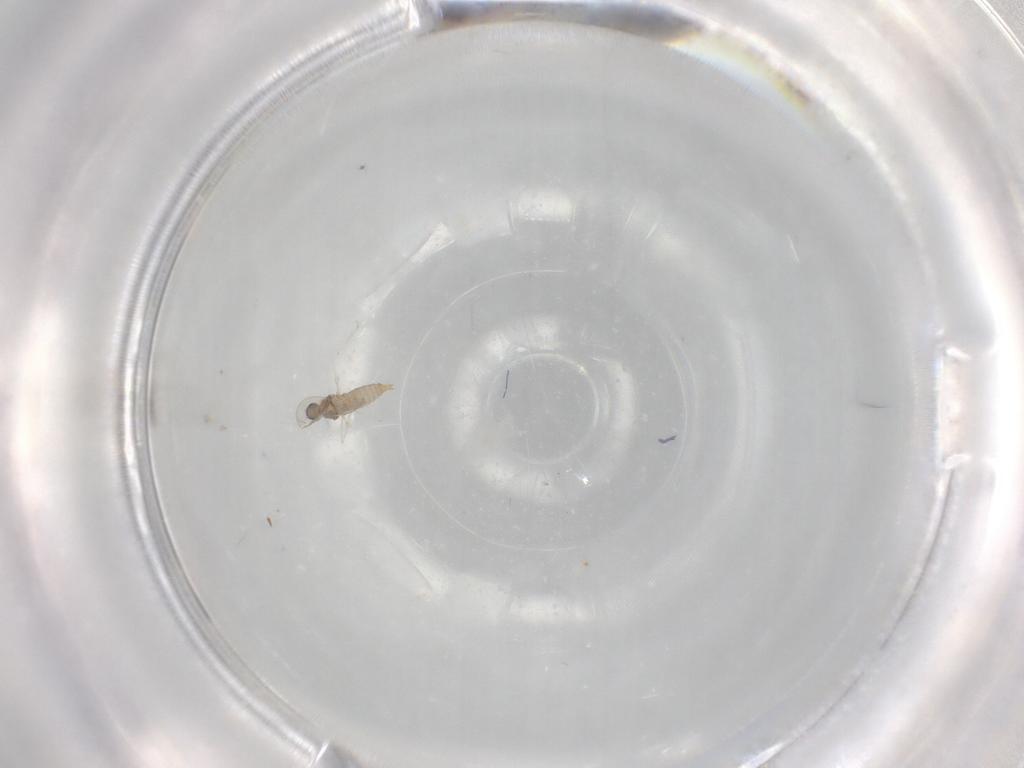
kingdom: Animalia
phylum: Arthropoda
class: Insecta
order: Diptera
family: Cecidomyiidae
